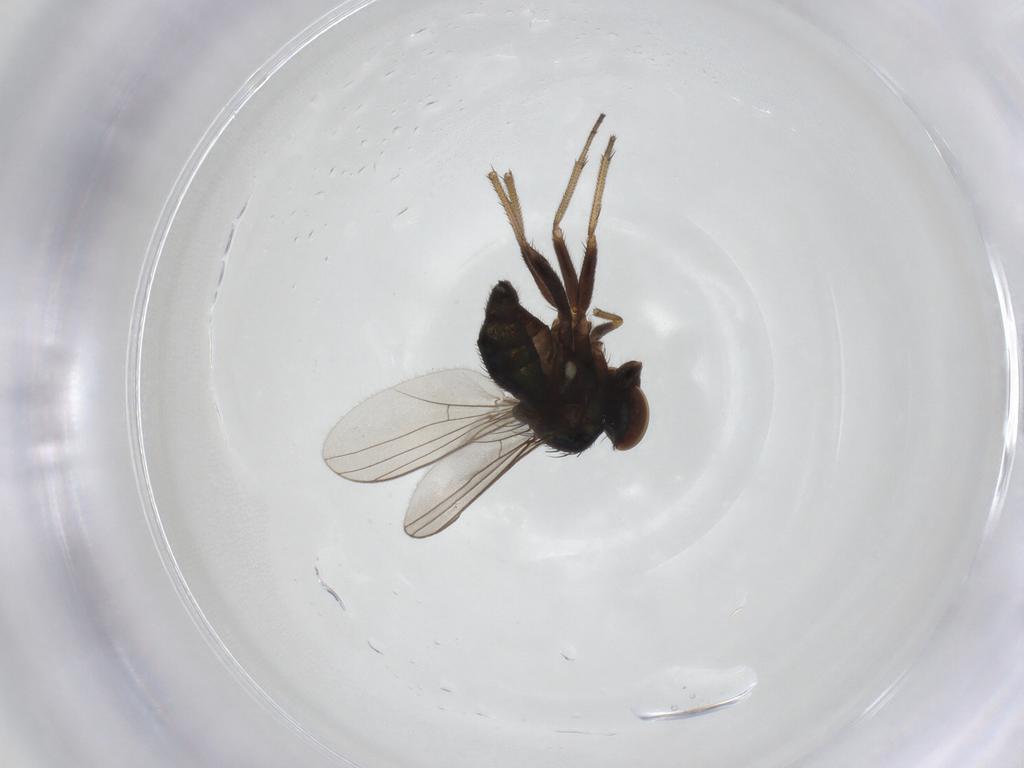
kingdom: Animalia
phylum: Arthropoda
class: Insecta
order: Diptera
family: Dolichopodidae
